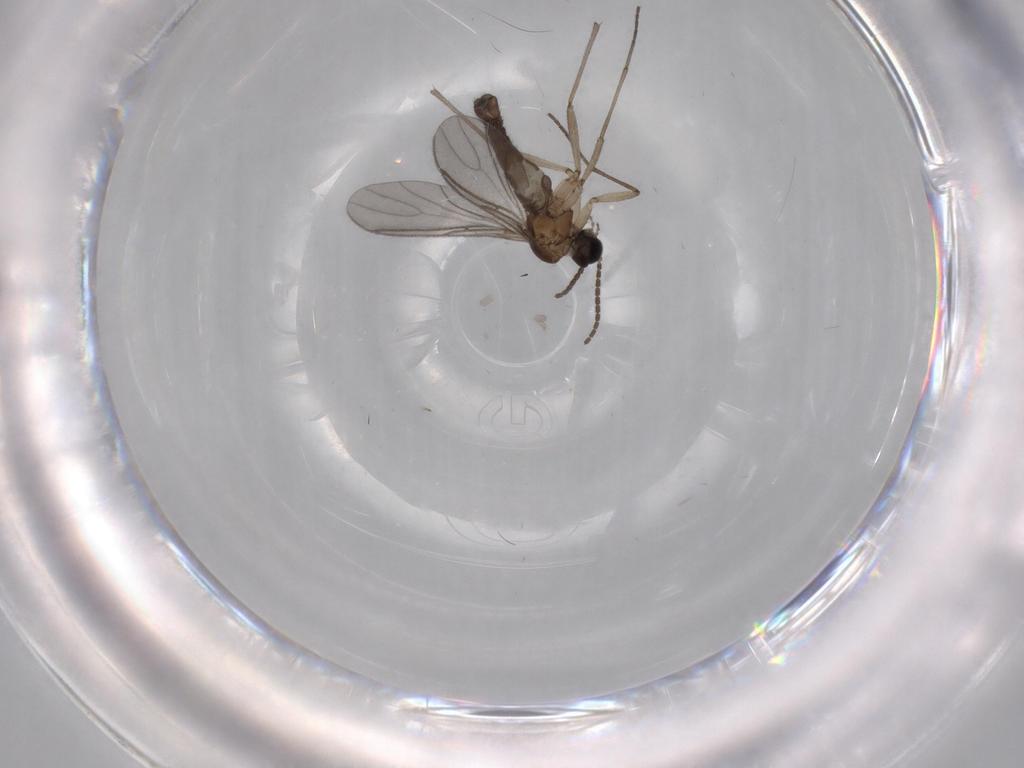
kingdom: Animalia
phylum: Arthropoda
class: Insecta
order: Diptera
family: Sciaridae
